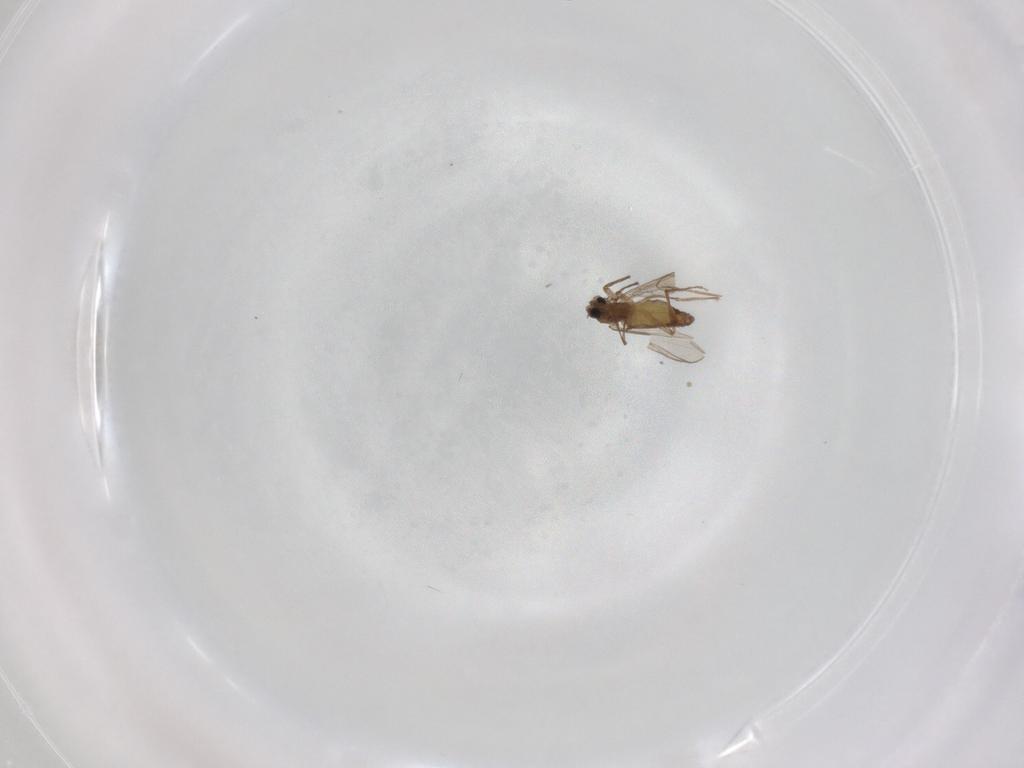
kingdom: Animalia
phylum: Arthropoda
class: Insecta
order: Diptera
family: Chironomidae
